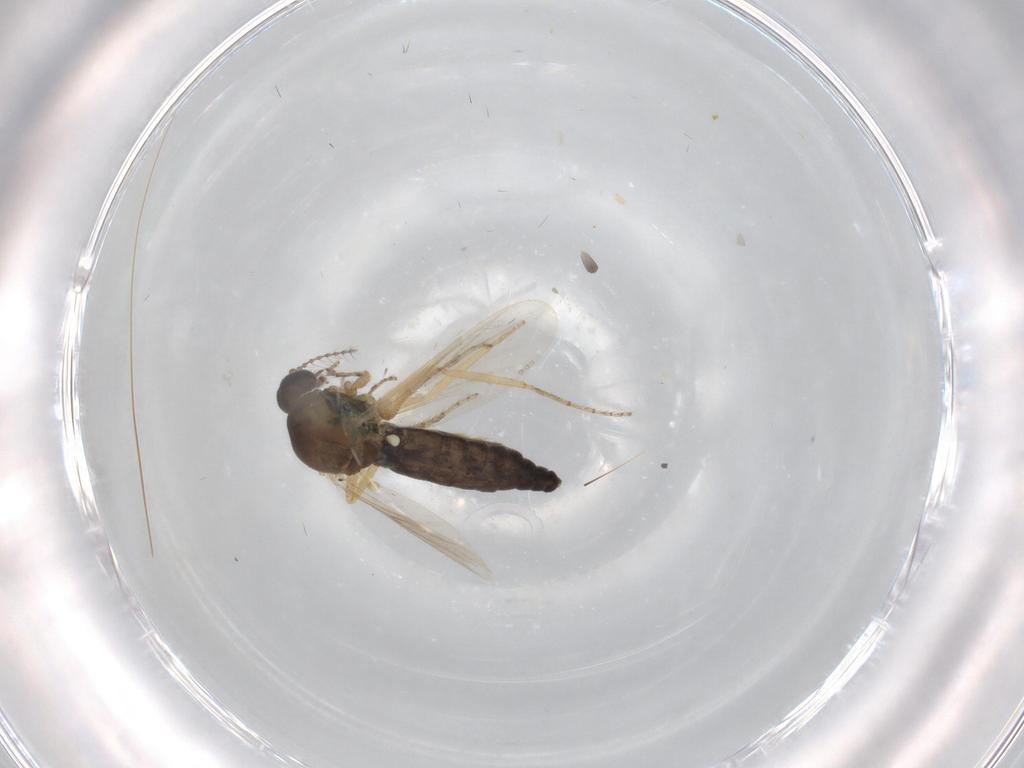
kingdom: Animalia
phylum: Arthropoda
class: Insecta
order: Diptera
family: Ceratopogonidae
